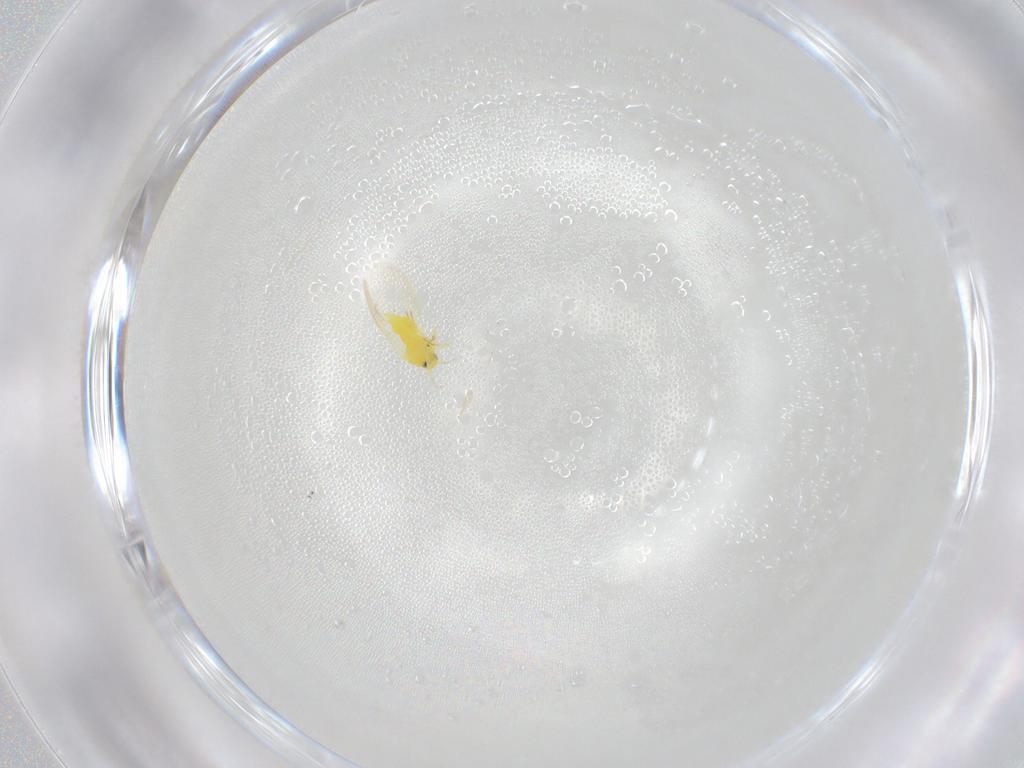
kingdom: Animalia
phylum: Arthropoda
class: Insecta
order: Hemiptera
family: Aleyrodidae
